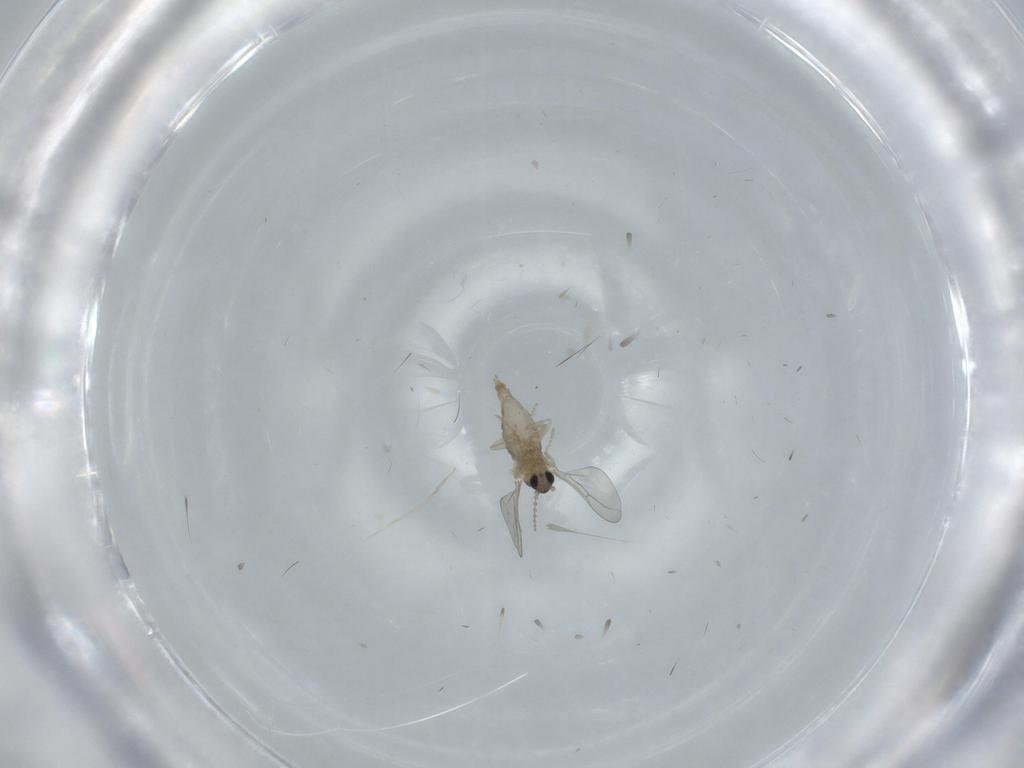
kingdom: Animalia
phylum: Arthropoda
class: Insecta
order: Diptera
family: Cecidomyiidae
